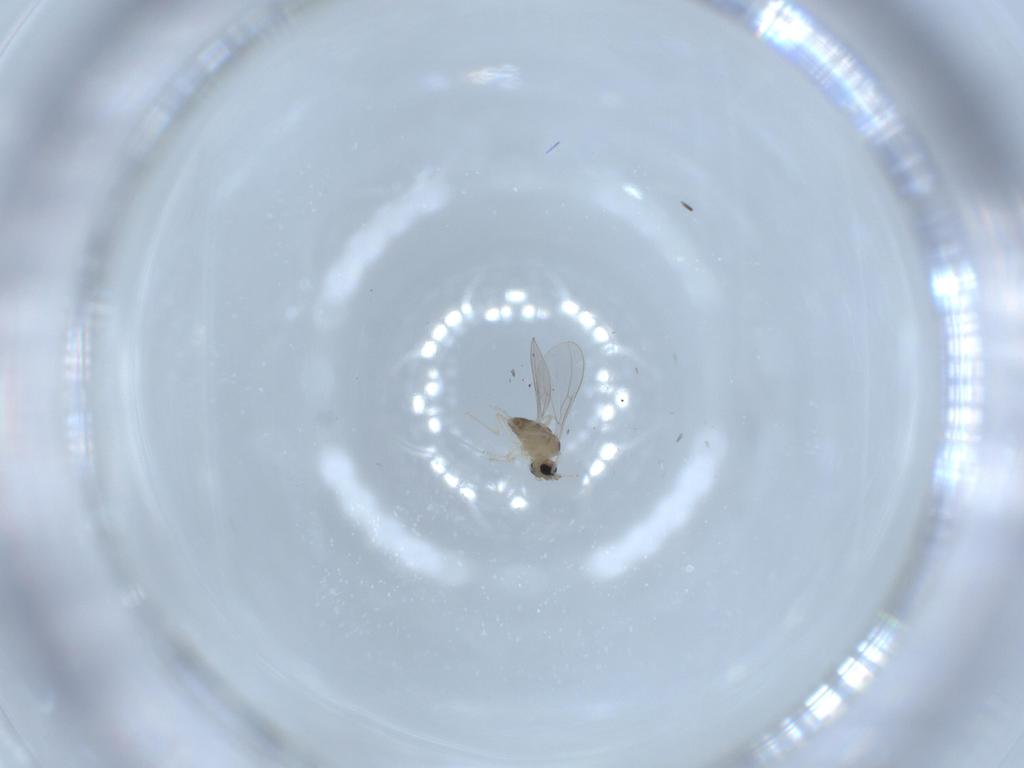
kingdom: Animalia
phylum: Arthropoda
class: Insecta
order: Diptera
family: Cecidomyiidae
